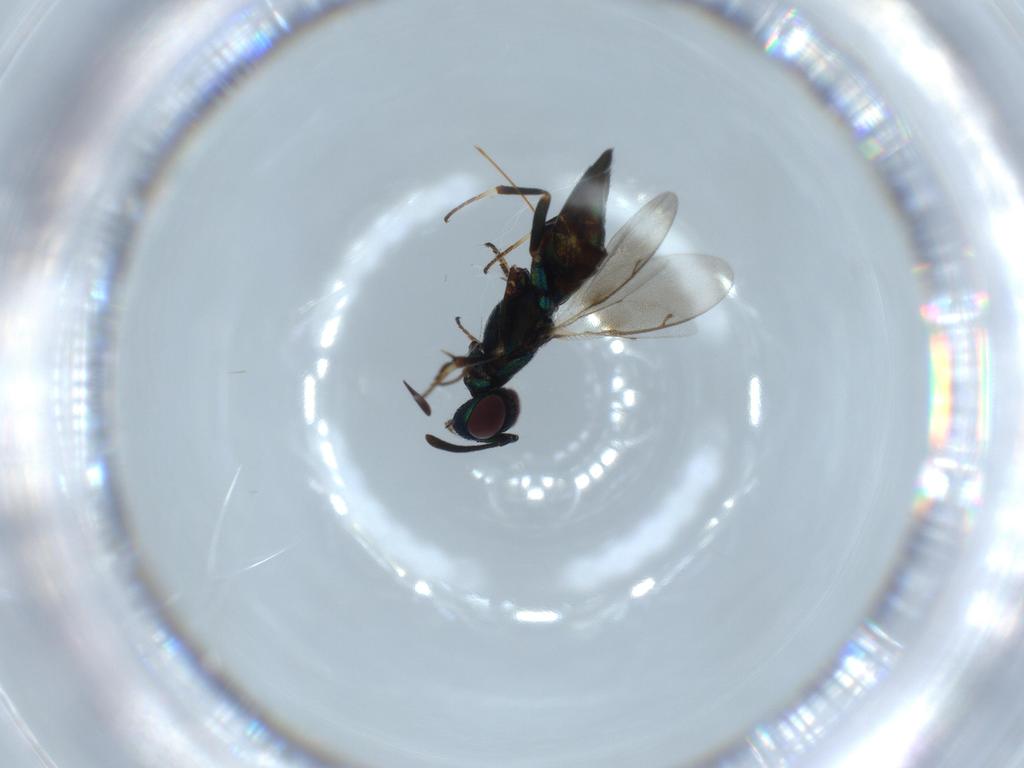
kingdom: Animalia
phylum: Arthropoda
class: Insecta
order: Hymenoptera
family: Eupelmidae
